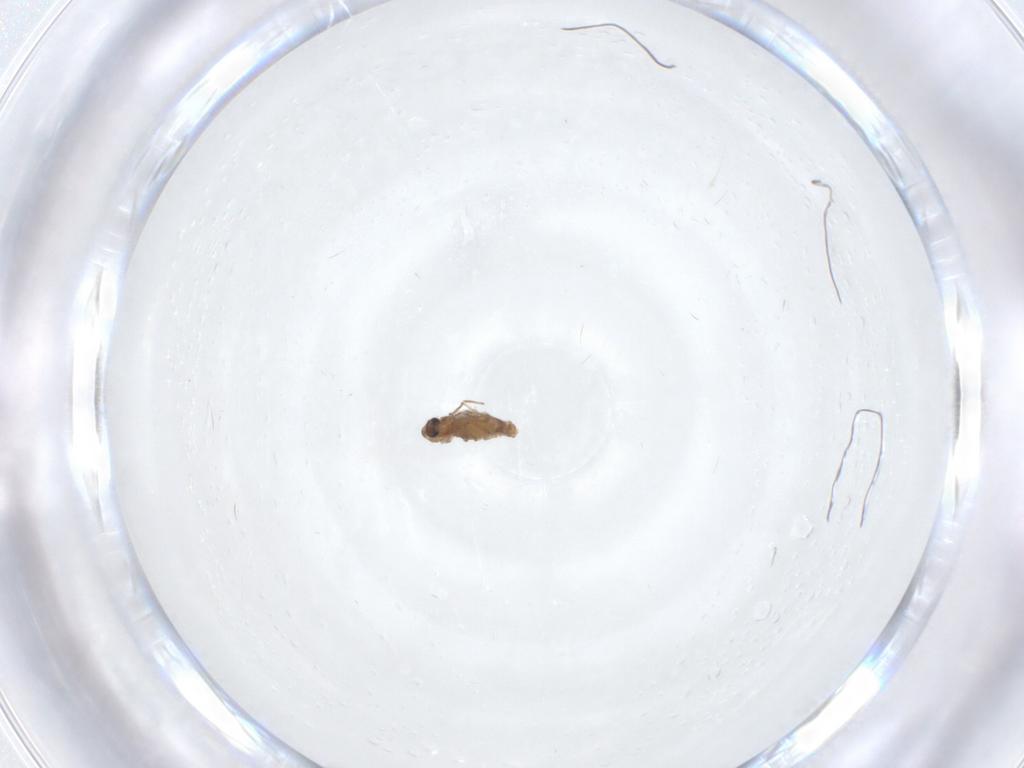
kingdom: Animalia
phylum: Arthropoda
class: Insecta
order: Diptera
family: Chironomidae
